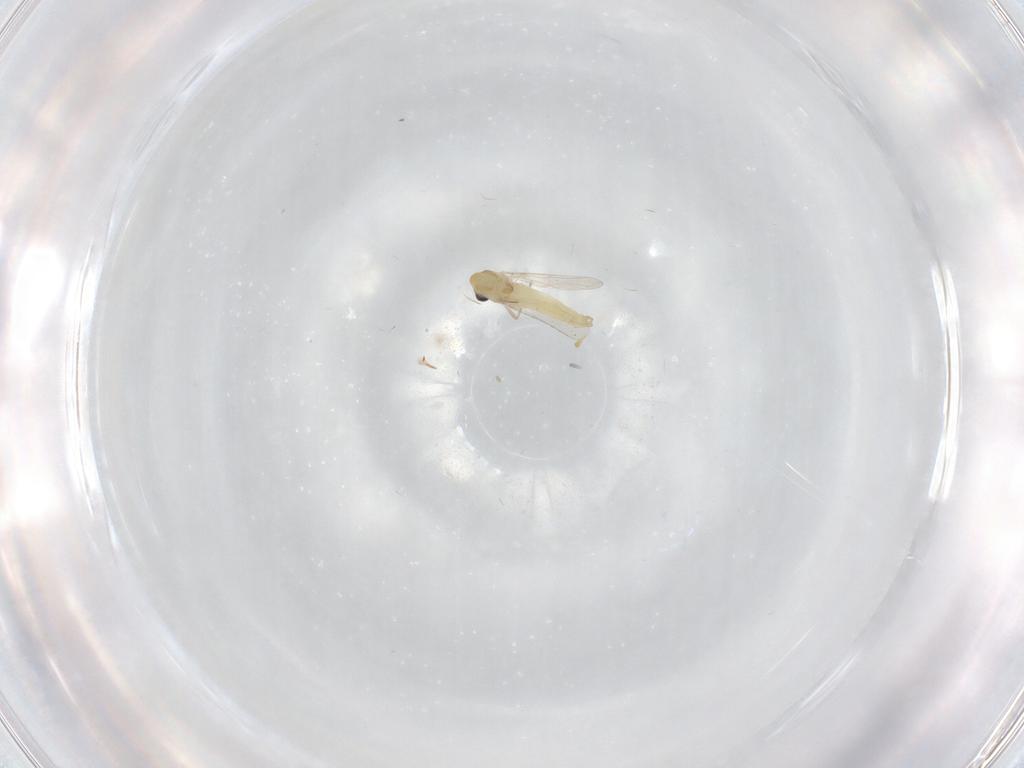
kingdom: Animalia
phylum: Arthropoda
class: Insecta
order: Diptera
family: Chironomidae
